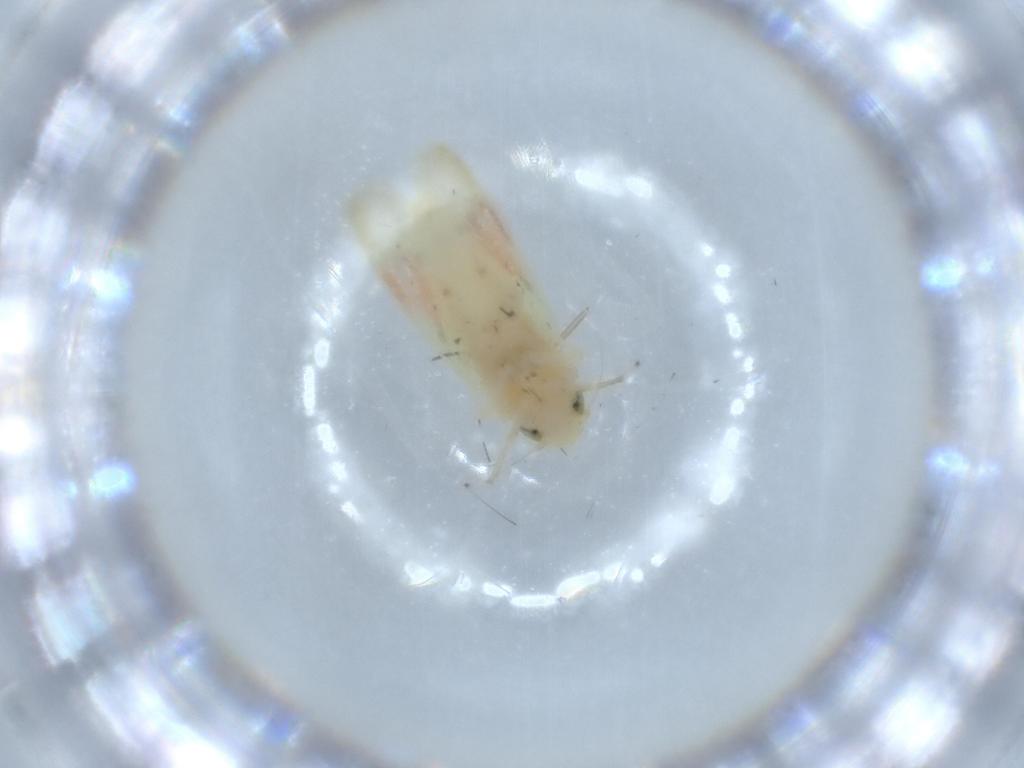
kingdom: Animalia
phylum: Arthropoda
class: Insecta
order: Hemiptera
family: Cicadellidae
